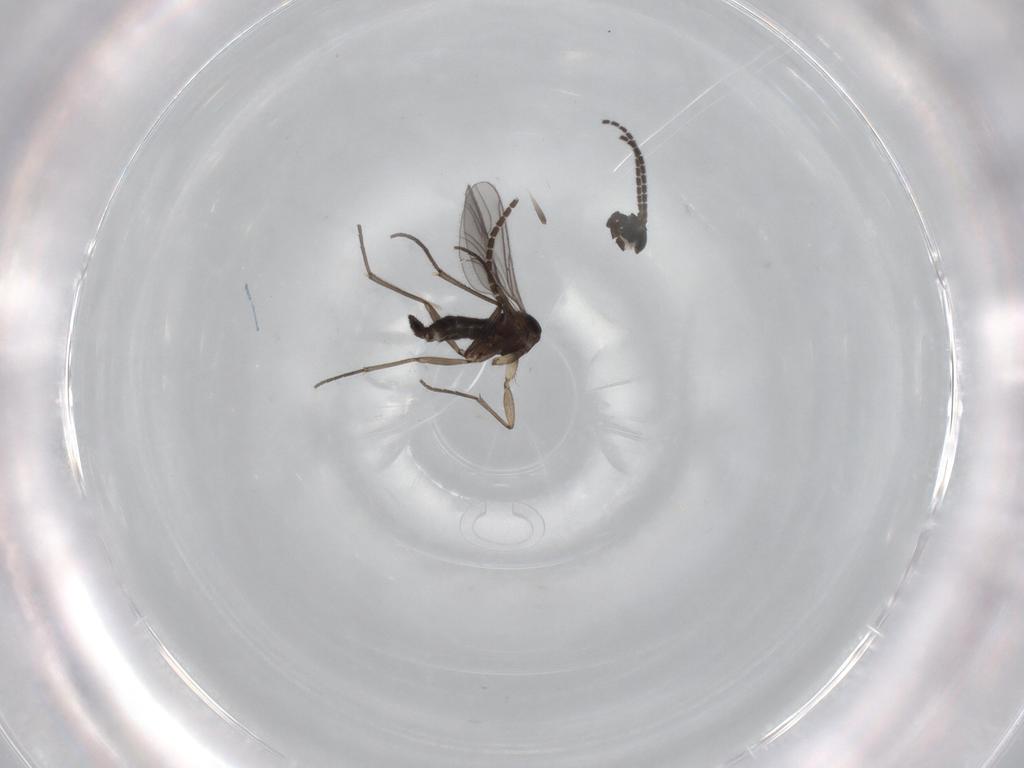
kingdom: Animalia
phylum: Arthropoda
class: Insecta
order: Diptera
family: Sciaridae
